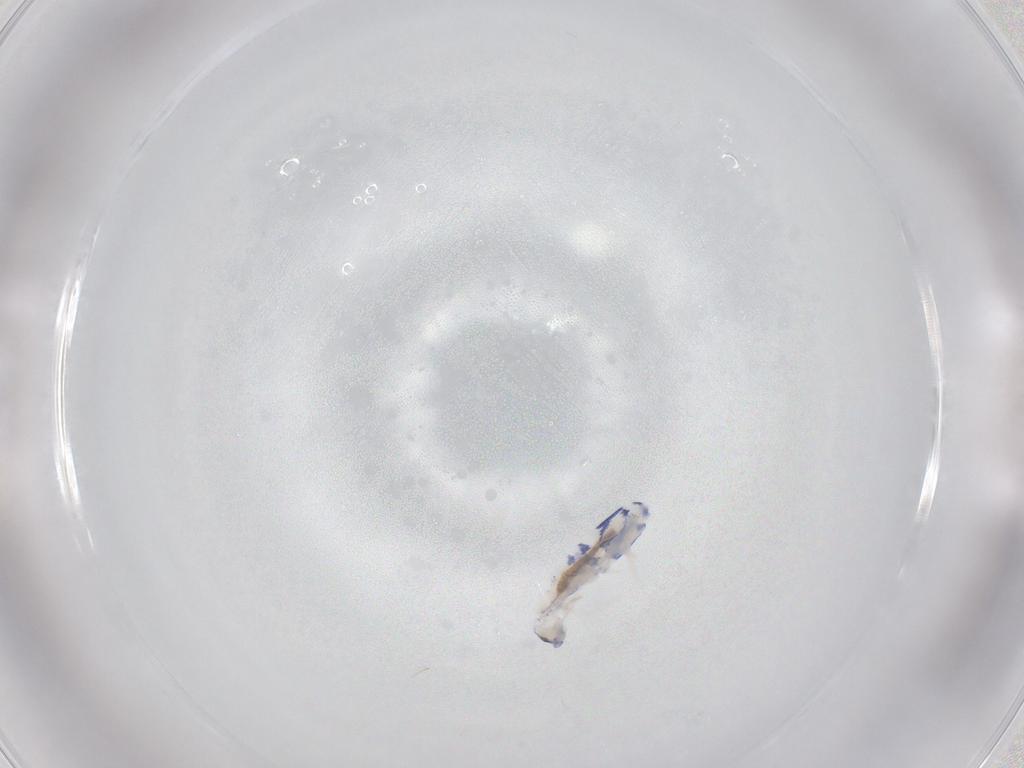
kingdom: Animalia
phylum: Arthropoda
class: Collembola
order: Entomobryomorpha
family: Entomobryidae
